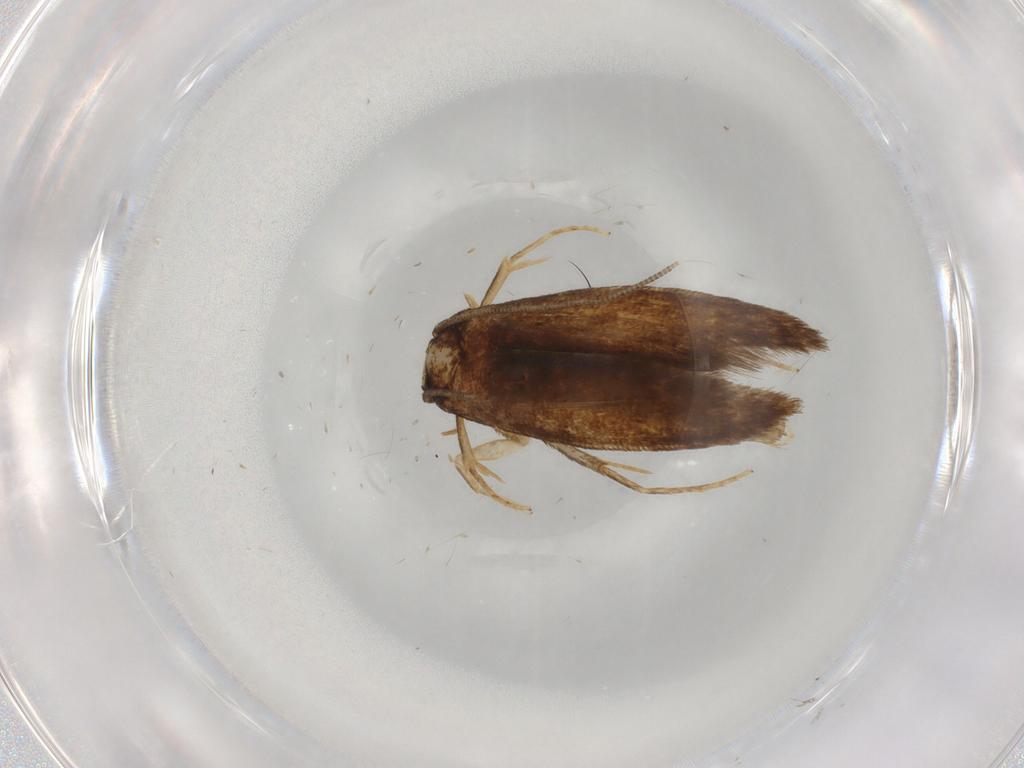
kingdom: Animalia
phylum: Arthropoda
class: Insecta
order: Lepidoptera
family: Tineidae
